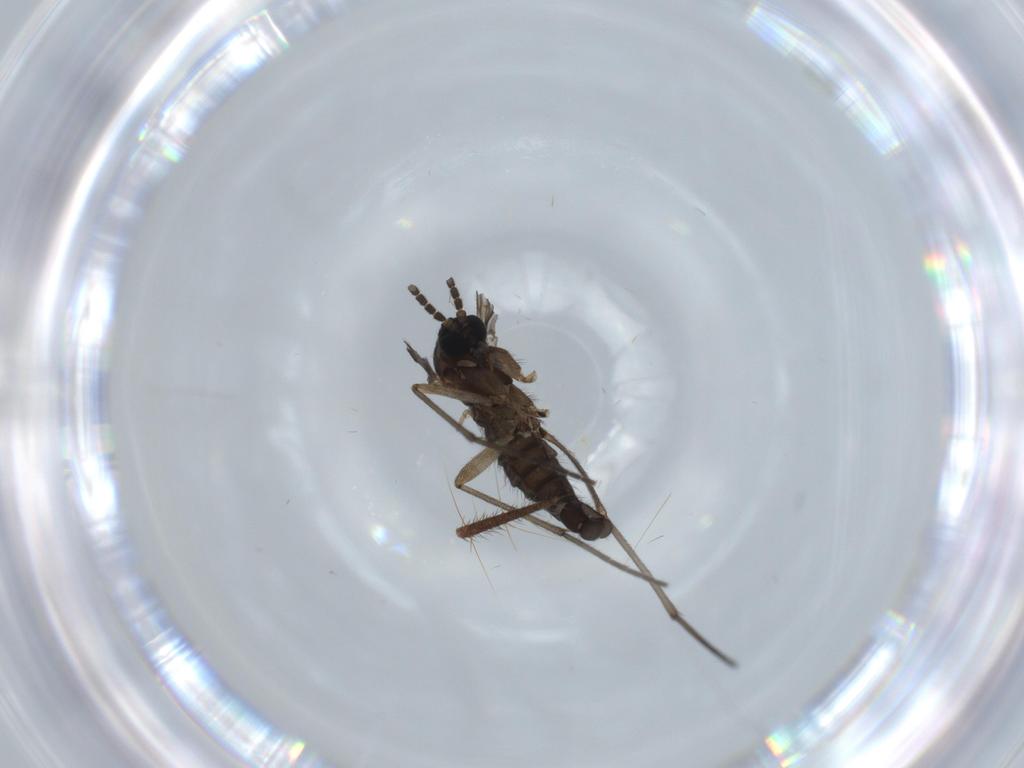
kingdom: Animalia
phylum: Arthropoda
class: Insecta
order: Diptera
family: Sciaridae
